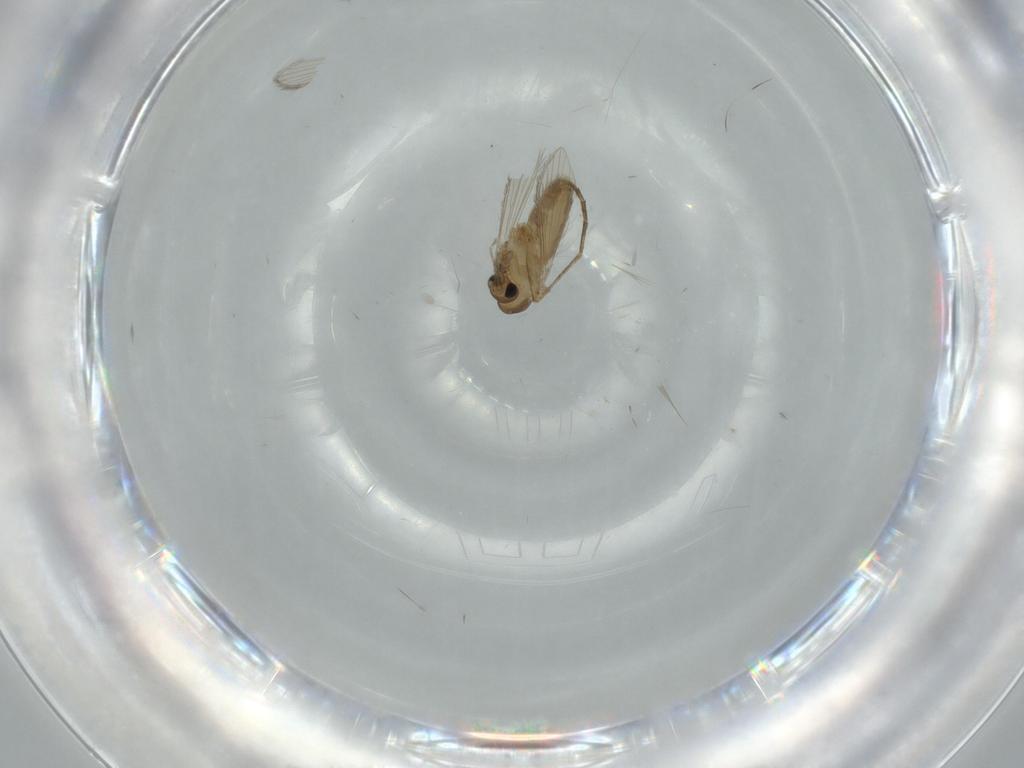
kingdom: Animalia
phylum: Arthropoda
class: Insecta
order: Diptera
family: Psychodidae
